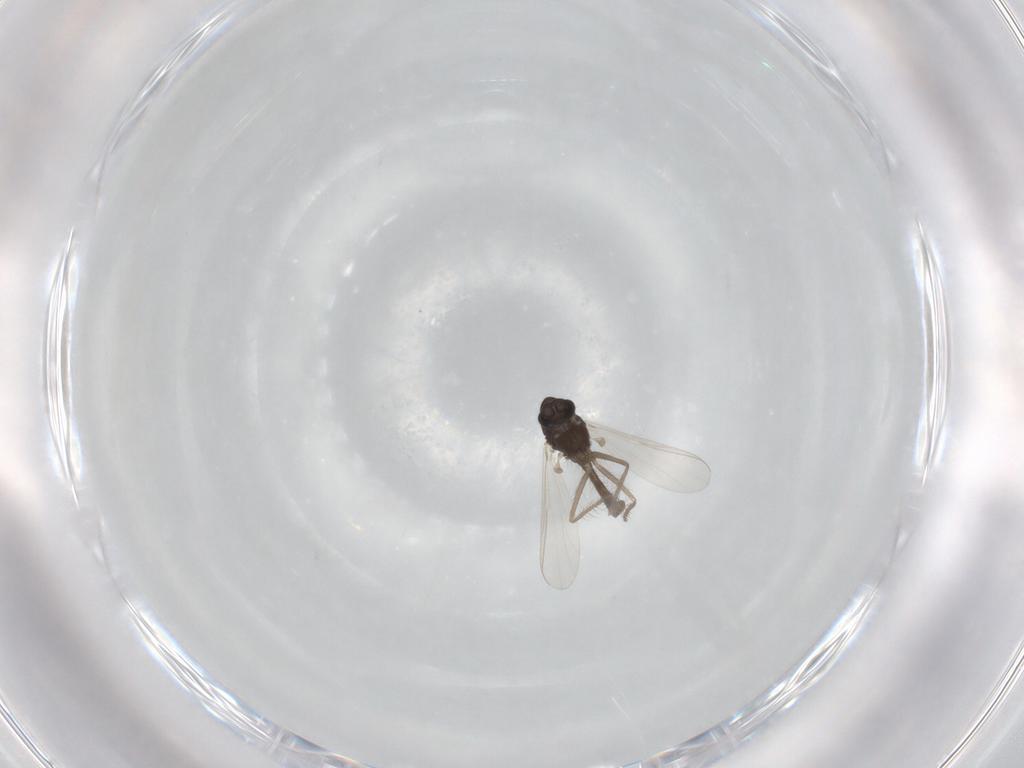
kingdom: Animalia
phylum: Arthropoda
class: Insecta
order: Diptera
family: Chironomidae
